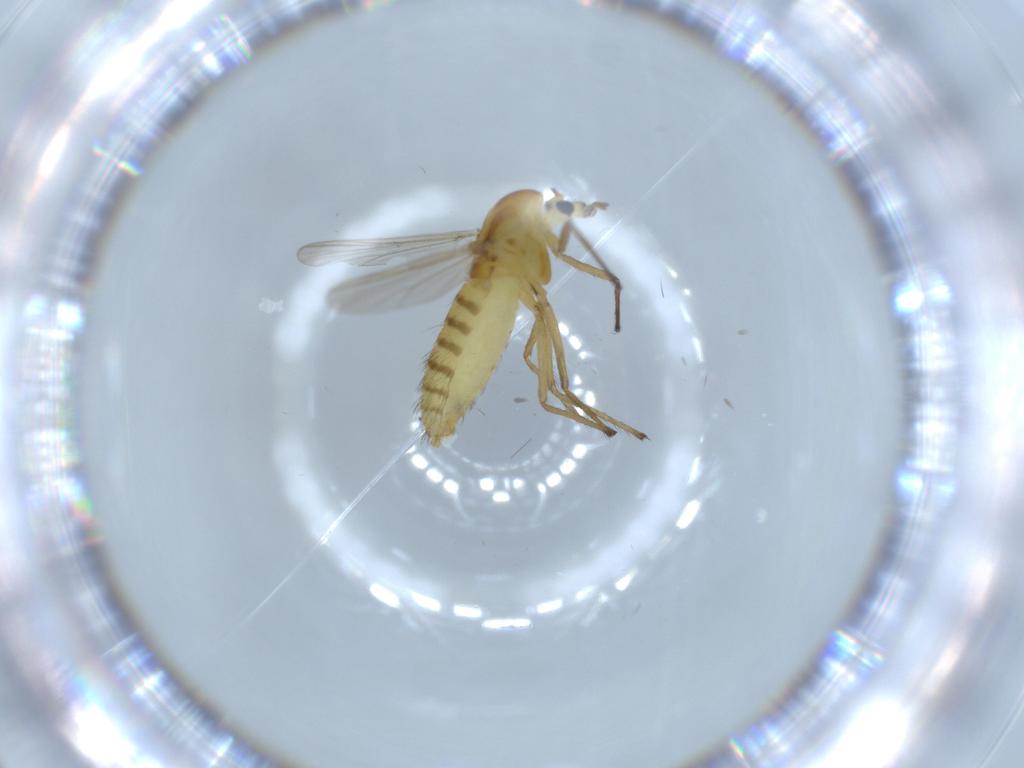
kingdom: Animalia
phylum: Arthropoda
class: Insecta
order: Diptera
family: Chironomidae
